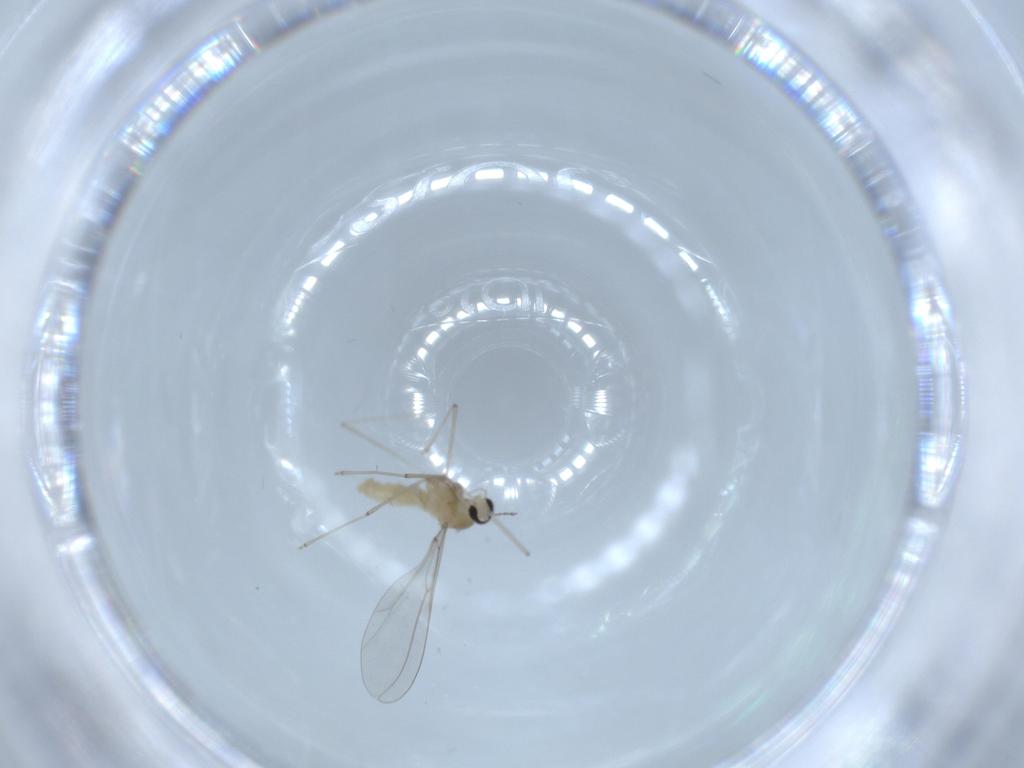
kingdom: Animalia
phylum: Arthropoda
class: Insecta
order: Diptera
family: Cecidomyiidae
